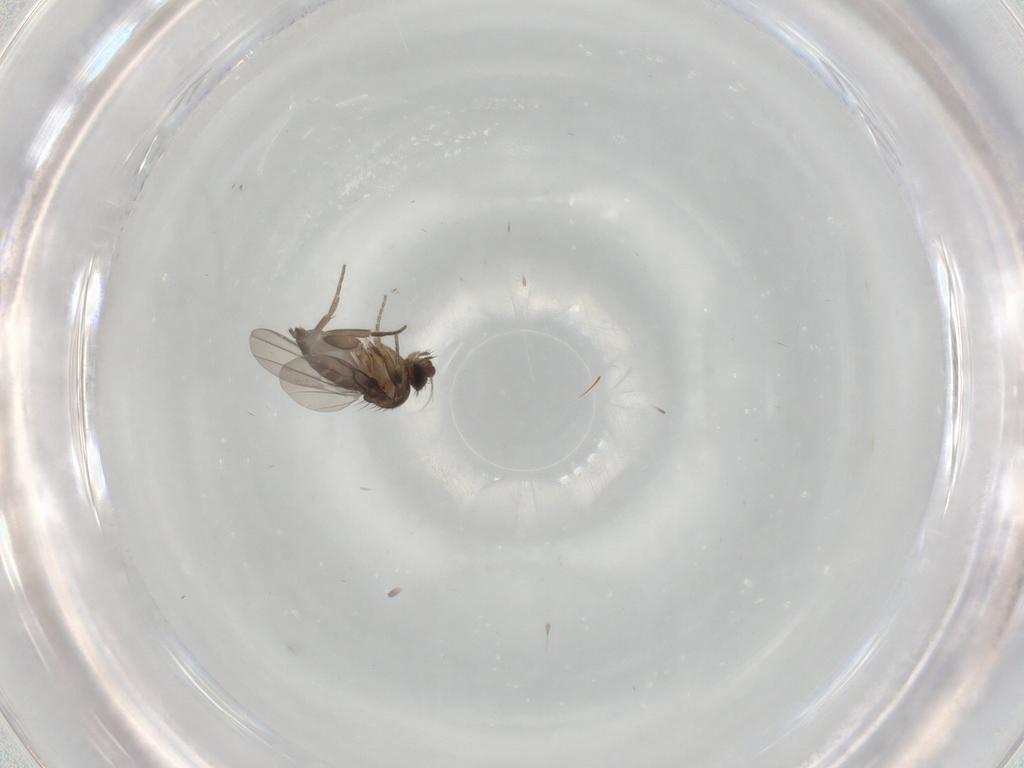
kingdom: Animalia
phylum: Arthropoda
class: Insecta
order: Diptera
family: Phoridae
